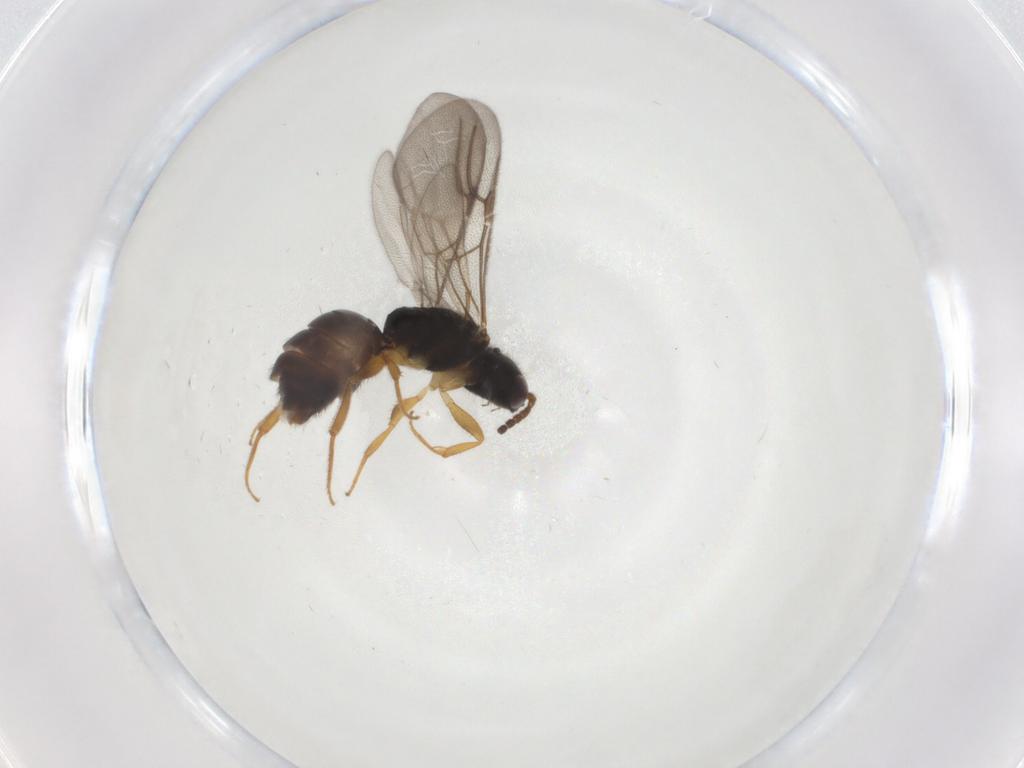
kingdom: Animalia
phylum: Arthropoda
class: Insecta
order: Hymenoptera
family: Bethylidae
